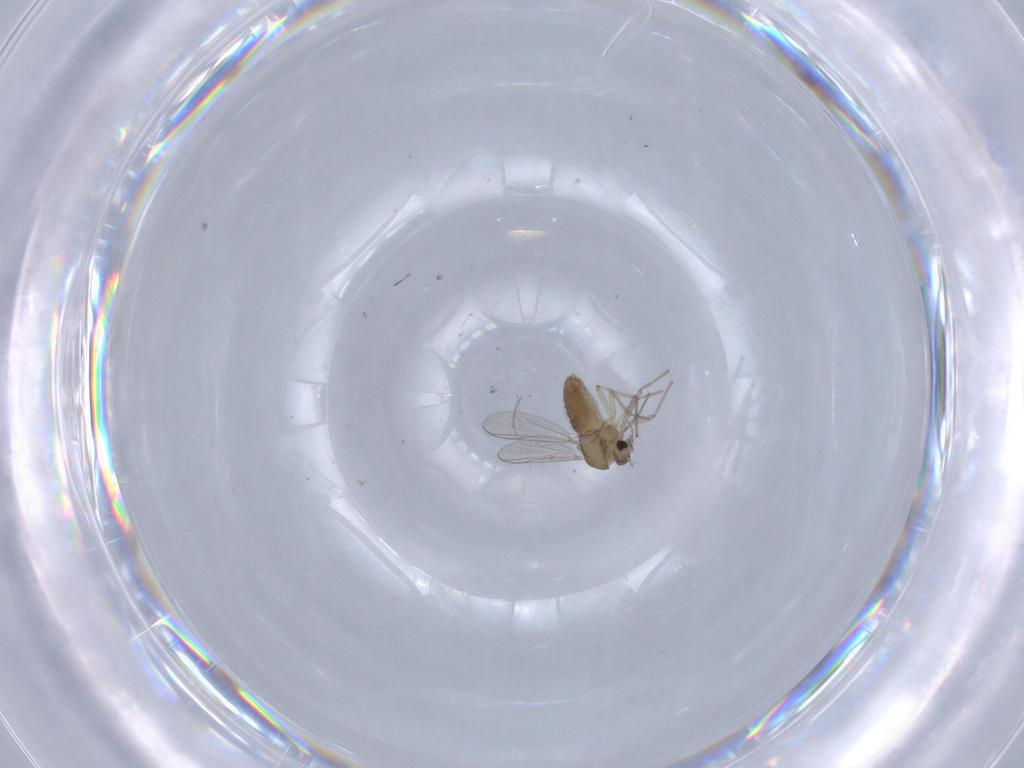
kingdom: Animalia
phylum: Arthropoda
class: Insecta
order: Diptera
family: Chironomidae
